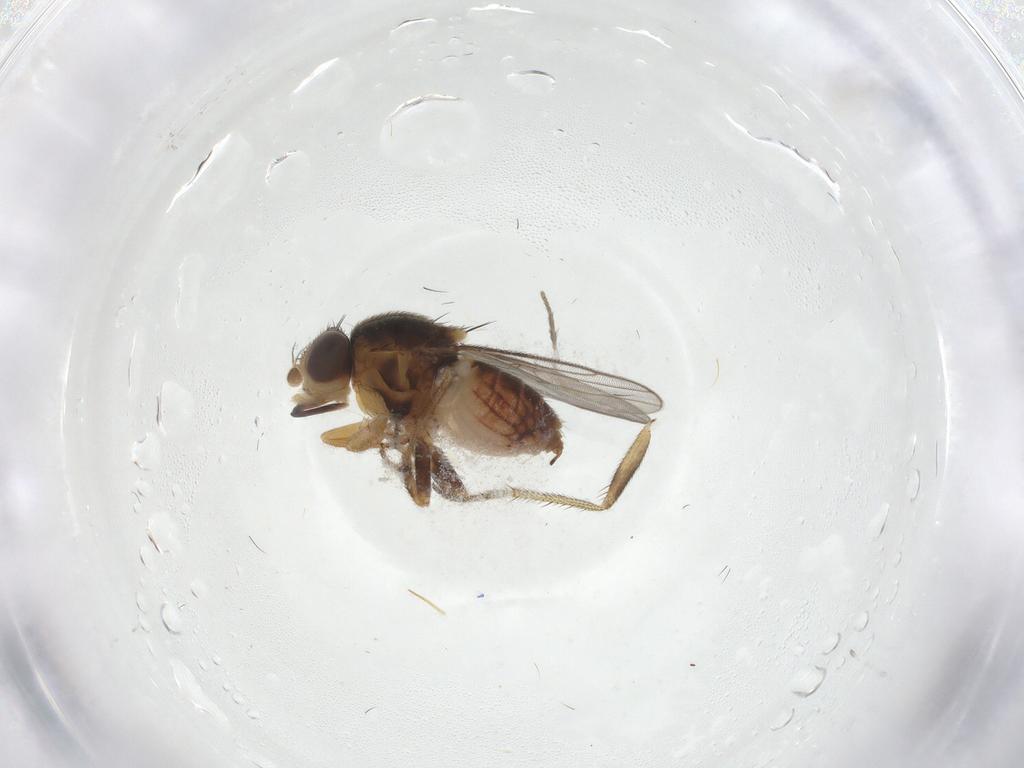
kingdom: Animalia
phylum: Arthropoda
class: Insecta
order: Diptera
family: Chloropidae
